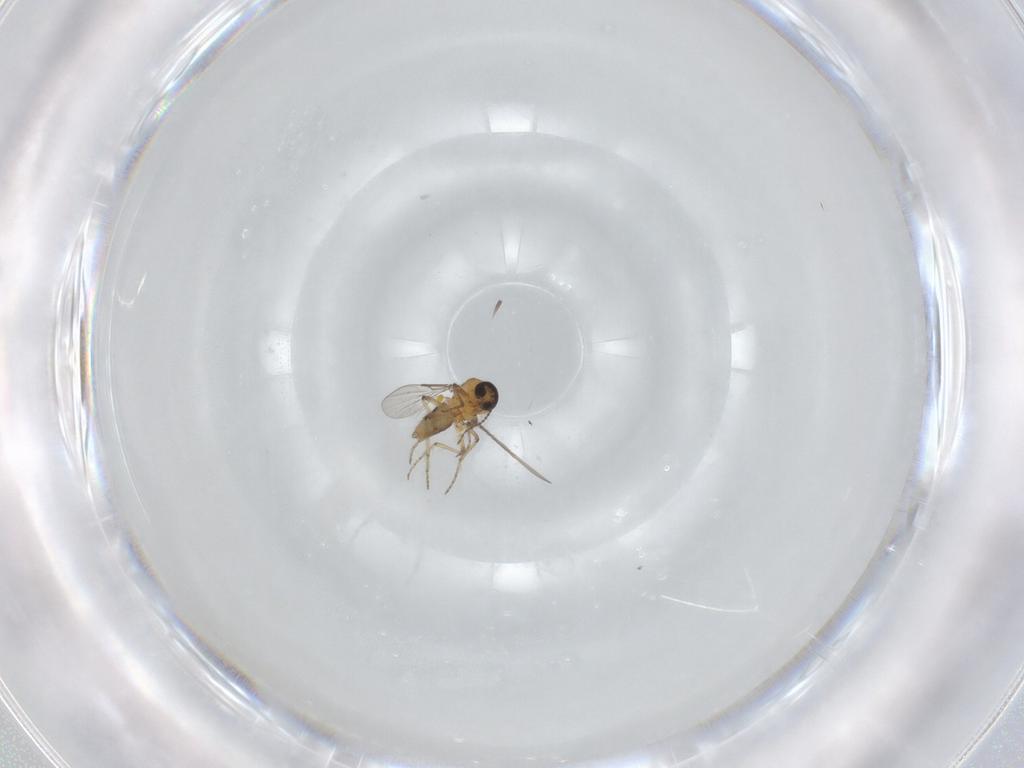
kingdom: Animalia
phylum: Arthropoda
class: Insecta
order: Diptera
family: Ceratopogonidae
